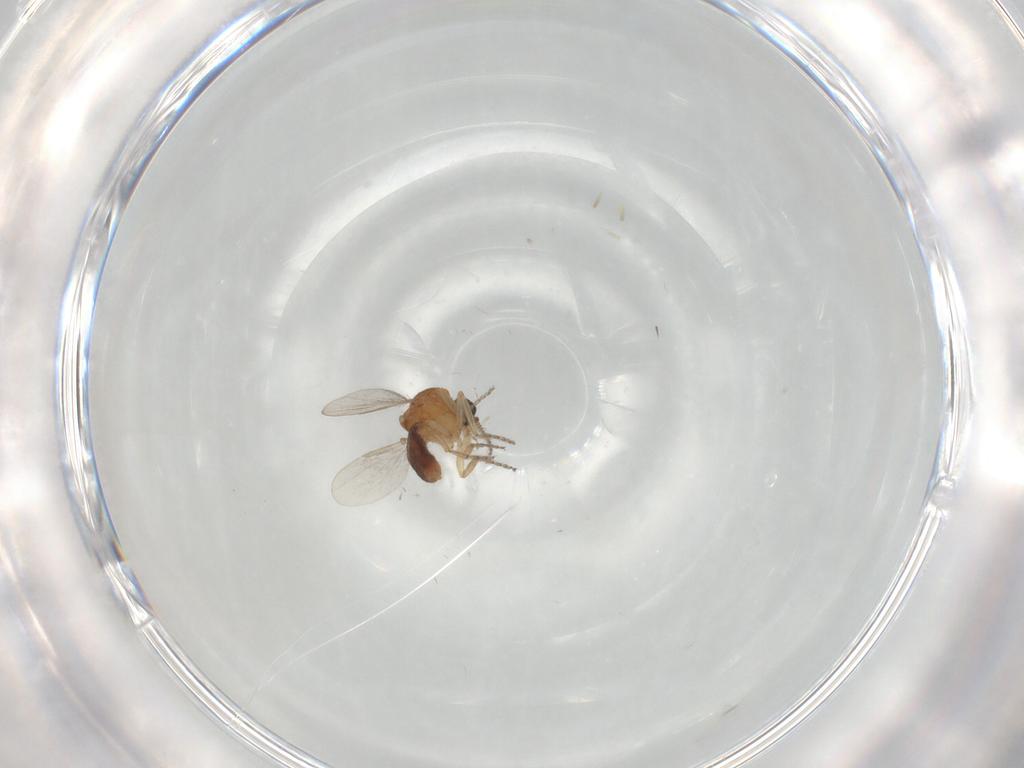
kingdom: Animalia
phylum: Arthropoda
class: Insecta
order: Diptera
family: Ceratopogonidae
